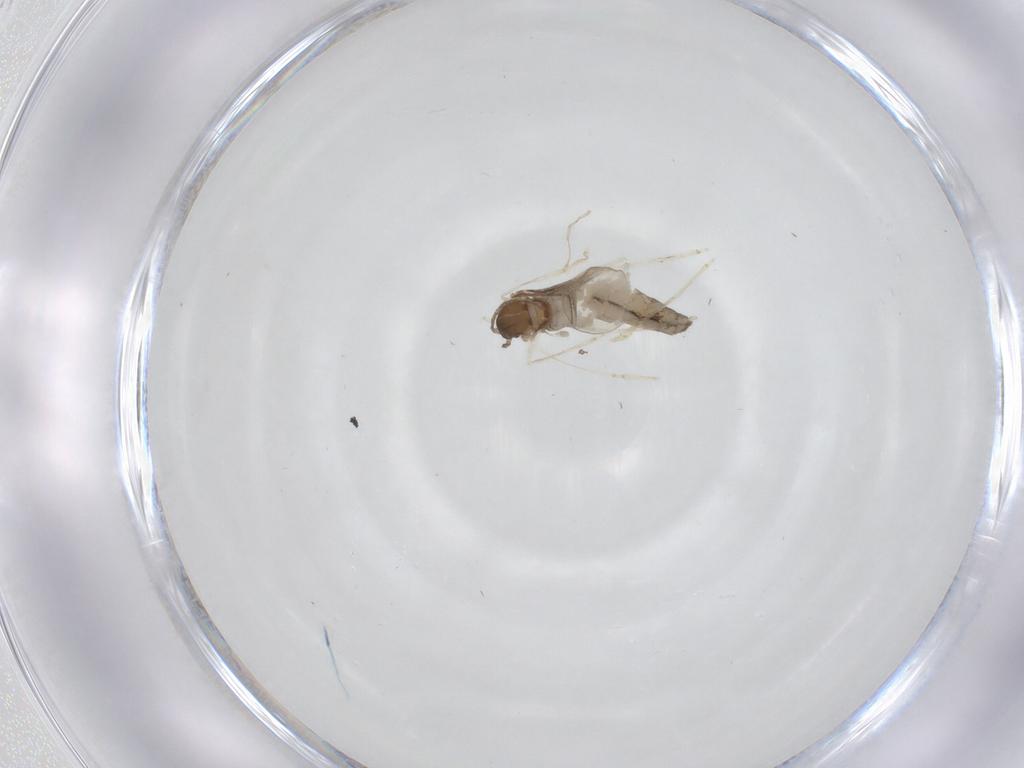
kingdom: Animalia
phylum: Arthropoda
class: Insecta
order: Diptera
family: Cecidomyiidae
